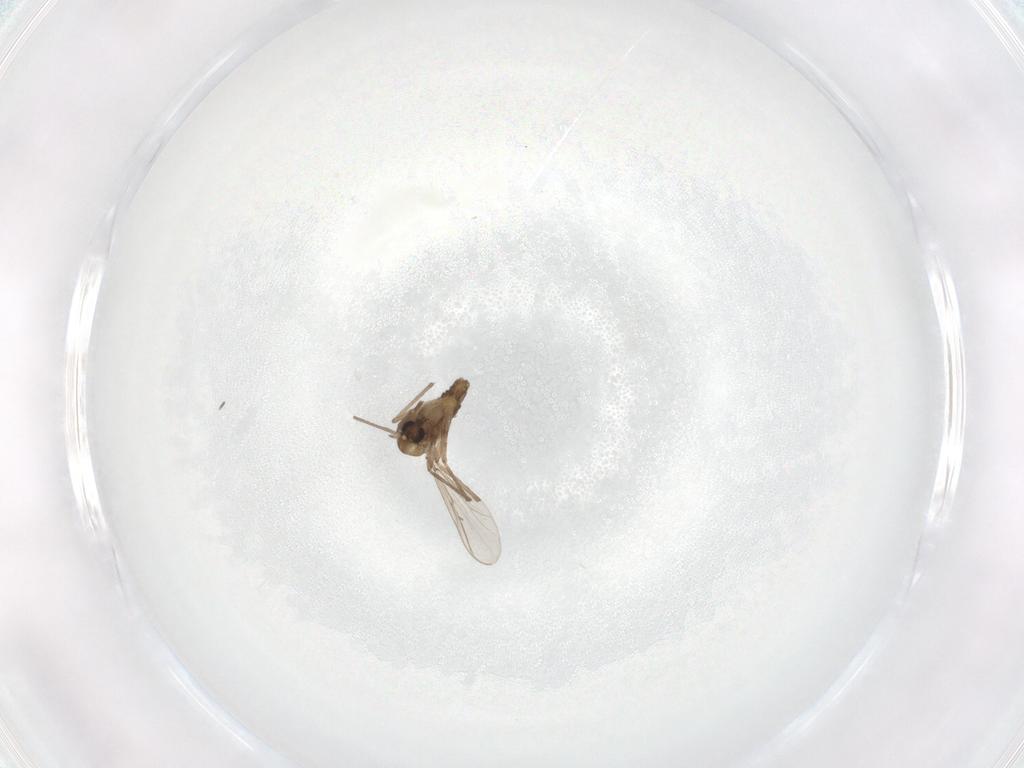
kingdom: Animalia
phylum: Arthropoda
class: Insecta
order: Diptera
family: Chironomidae
